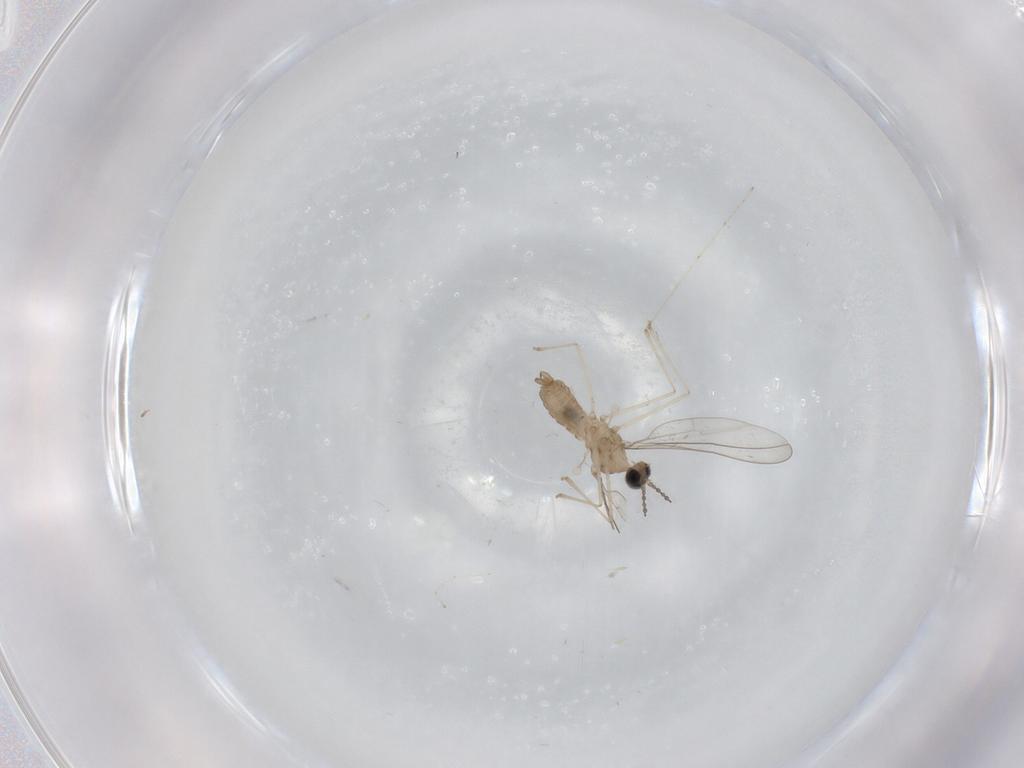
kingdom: Animalia
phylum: Arthropoda
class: Insecta
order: Diptera
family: Cecidomyiidae
